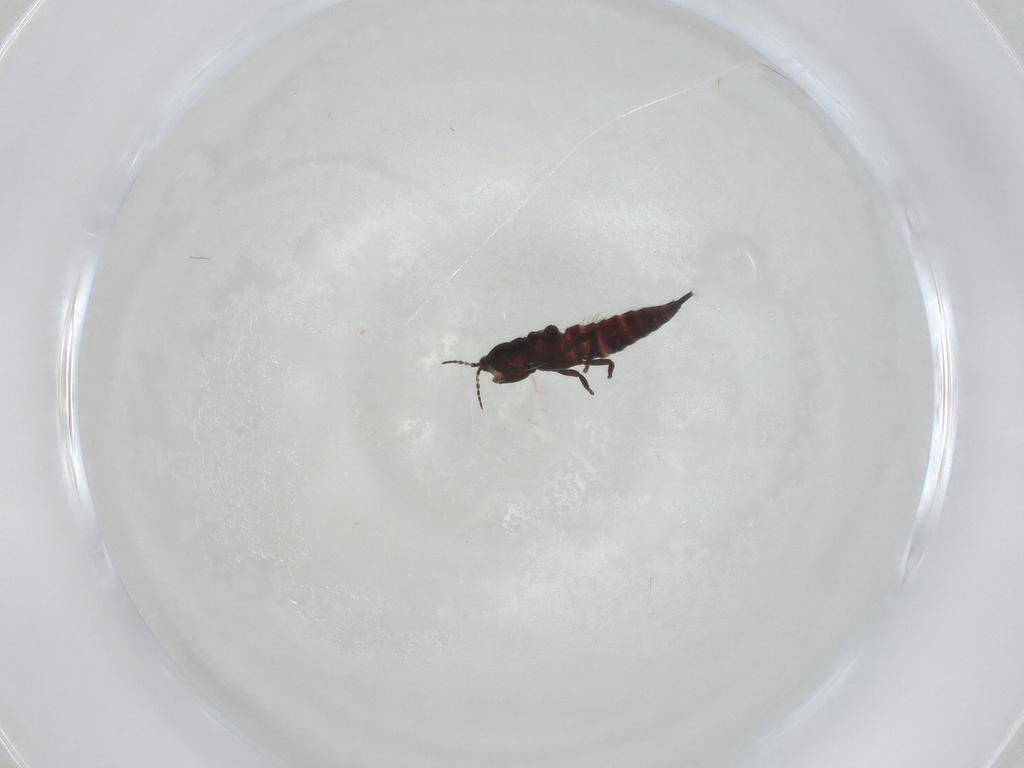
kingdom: Animalia
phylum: Arthropoda
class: Insecta
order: Thysanoptera
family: Phlaeothripidae
